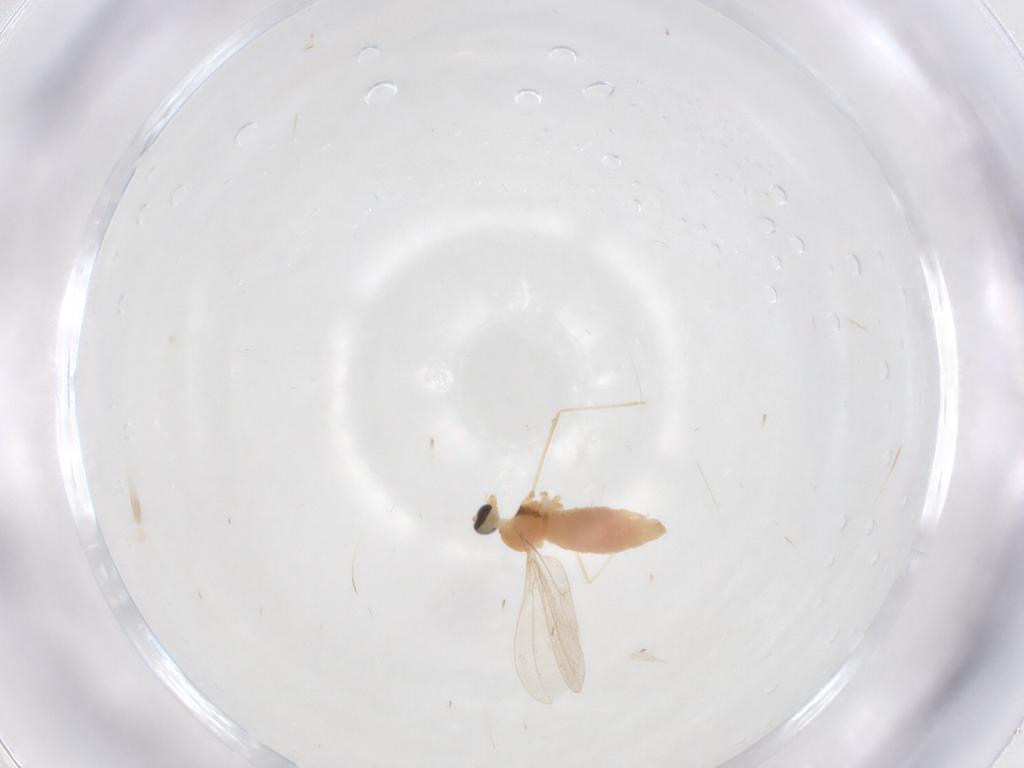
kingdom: Animalia
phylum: Arthropoda
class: Insecta
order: Diptera
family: Cecidomyiidae
